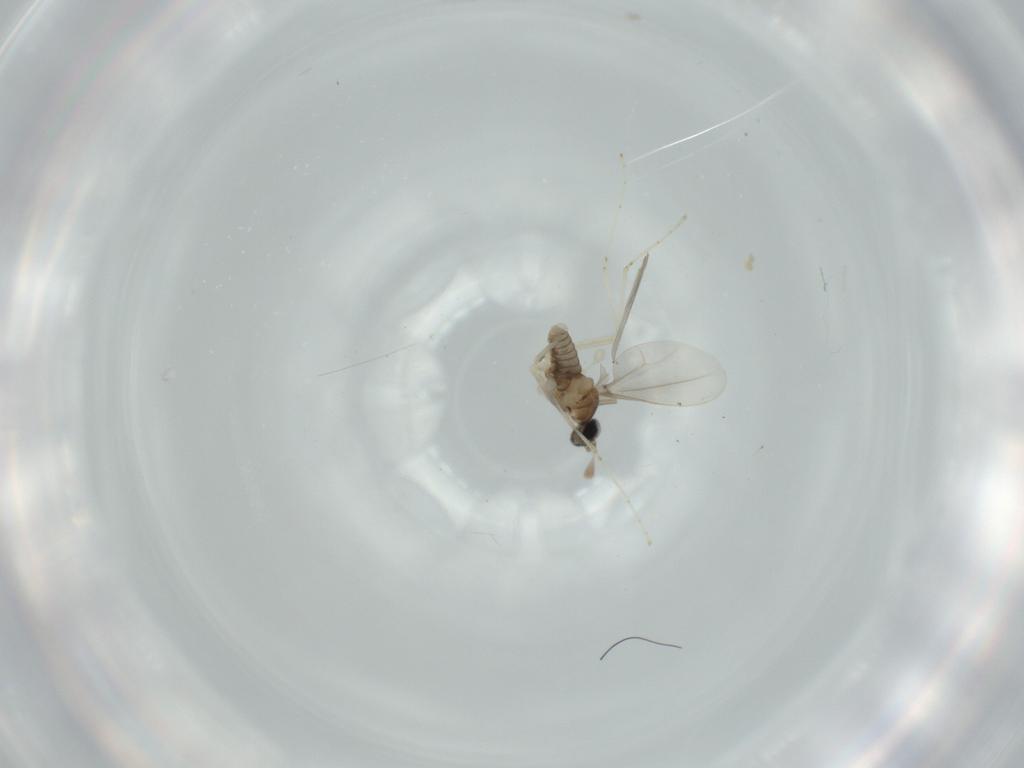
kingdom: Animalia
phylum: Arthropoda
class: Insecta
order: Diptera
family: Cecidomyiidae
